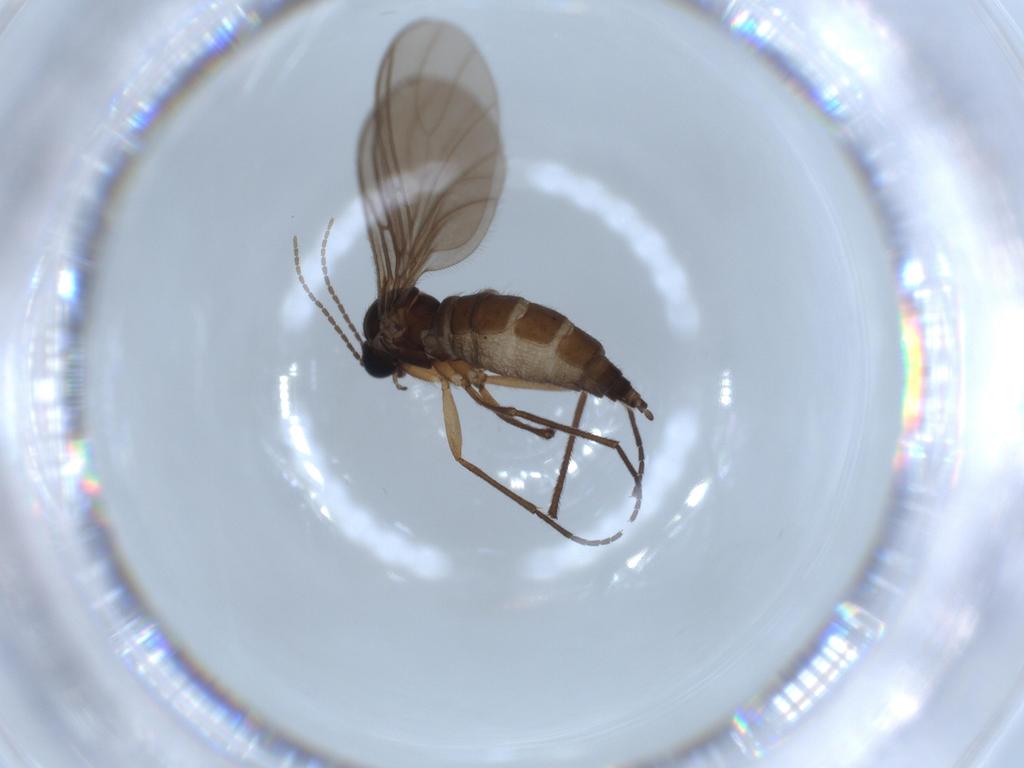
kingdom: Animalia
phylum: Arthropoda
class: Insecta
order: Diptera
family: Sciaridae
